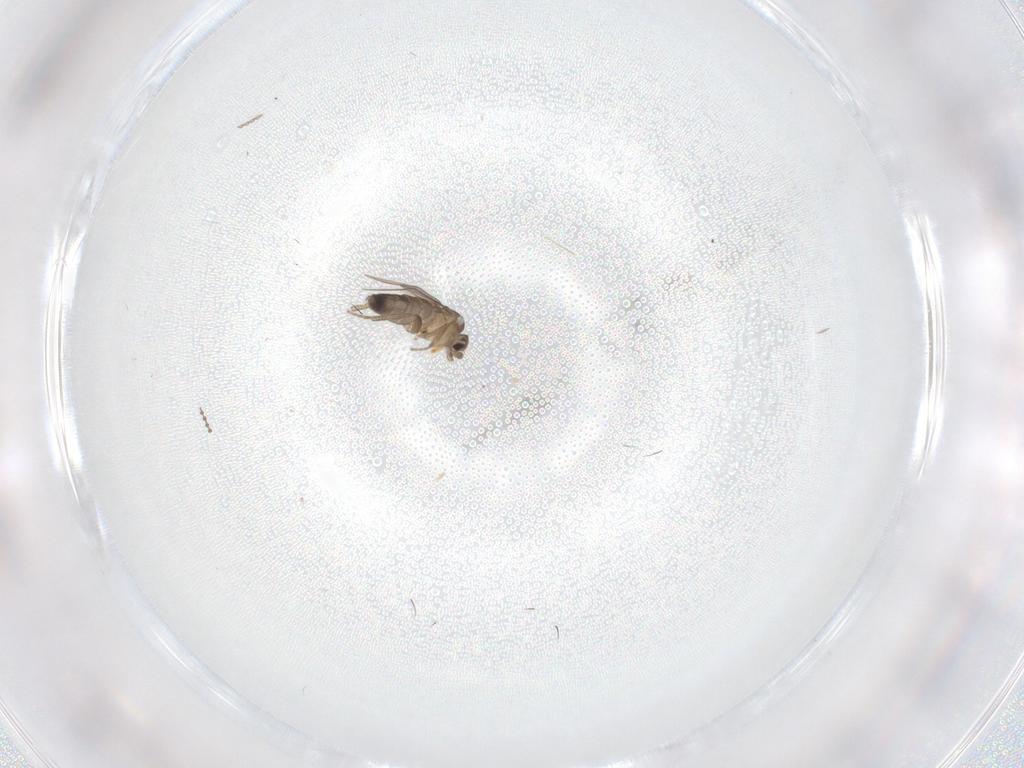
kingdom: Animalia
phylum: Arthropoda
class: Insecta
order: Diptera
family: Cecidomyiidae
